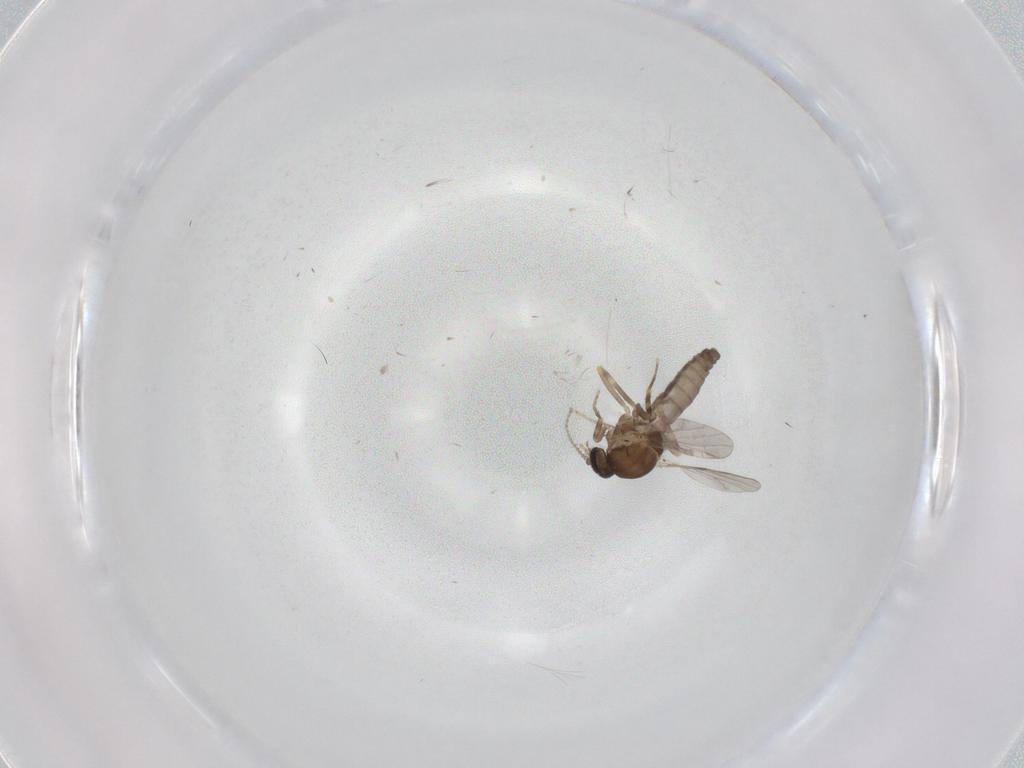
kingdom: Animalia
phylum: Arthropoda
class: Insecta
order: Diptera
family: Ceratopogonidae
